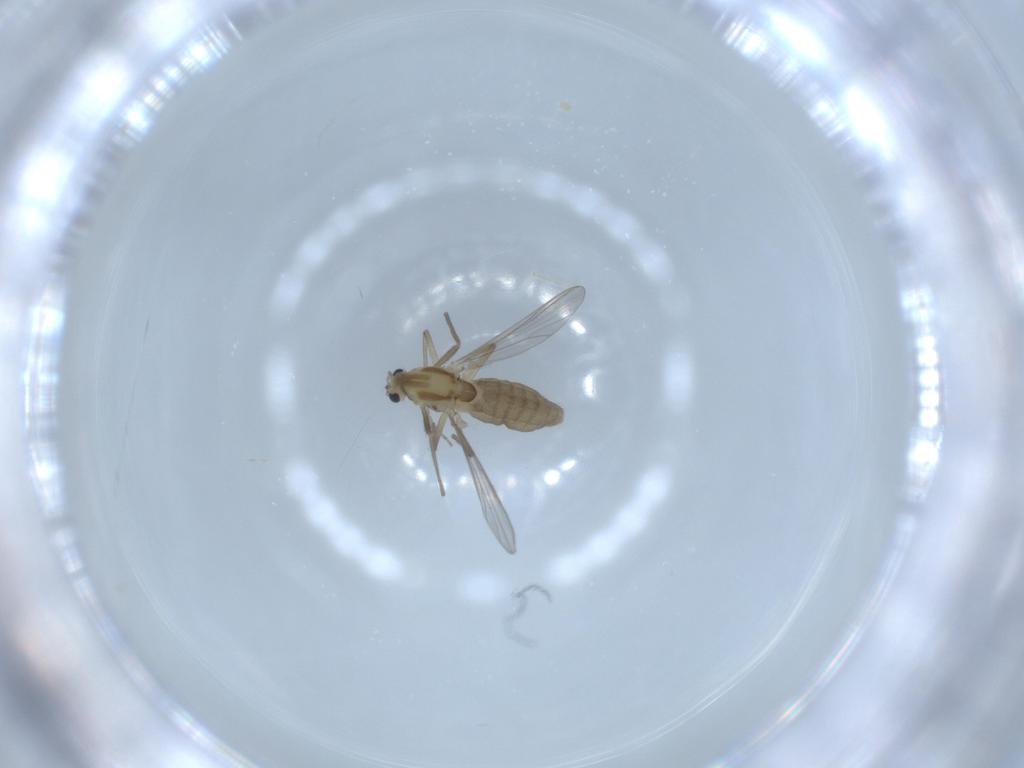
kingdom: Animalia
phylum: Arthropoda
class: Insecta
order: Diptera
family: Chironomidae
